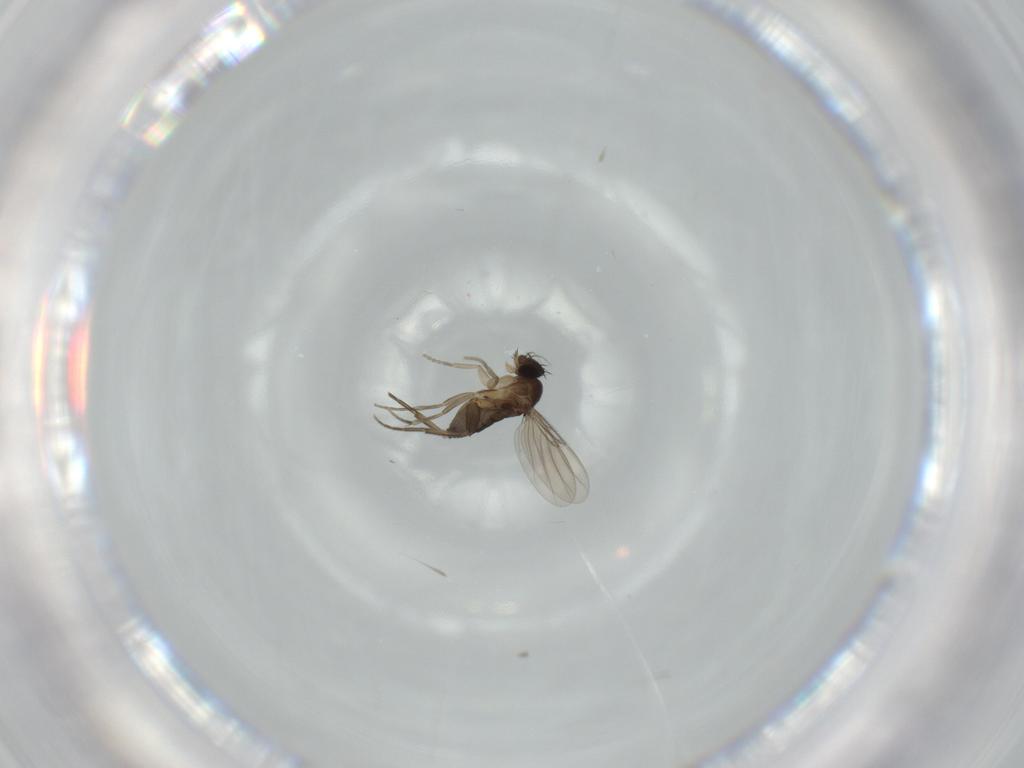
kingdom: Animalia
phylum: Arthropoda
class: Insecta
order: Diptera
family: Phoridae
